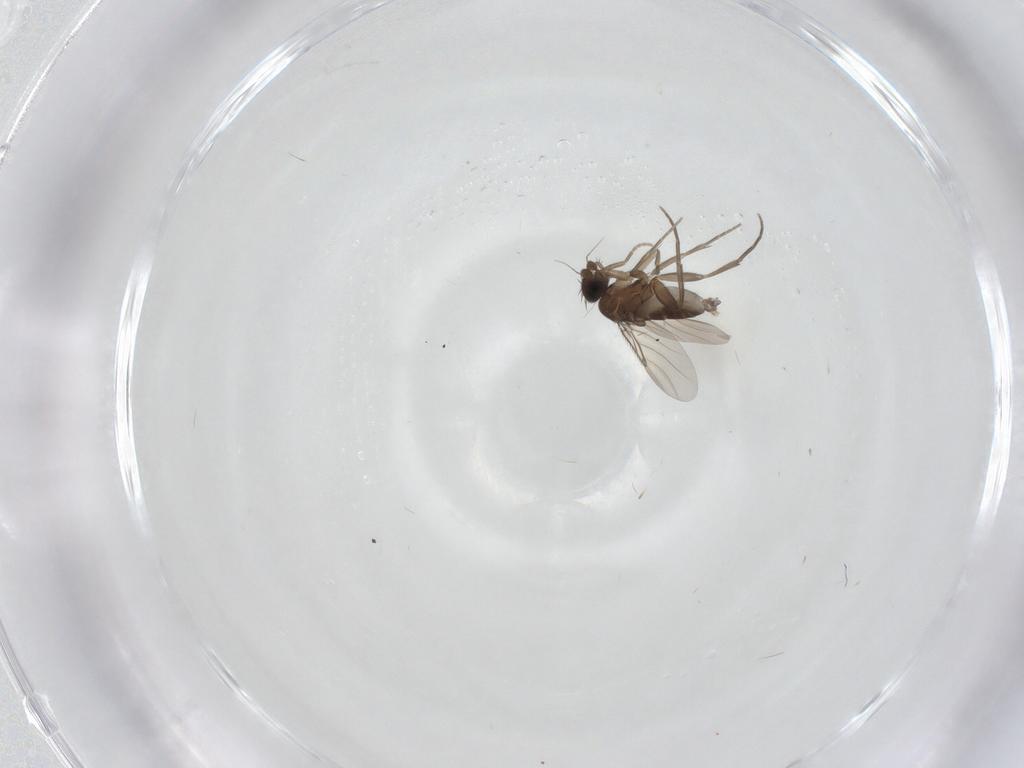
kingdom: Animalia
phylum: Arthropoda
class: Insecta
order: Diptera
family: Phoridae
